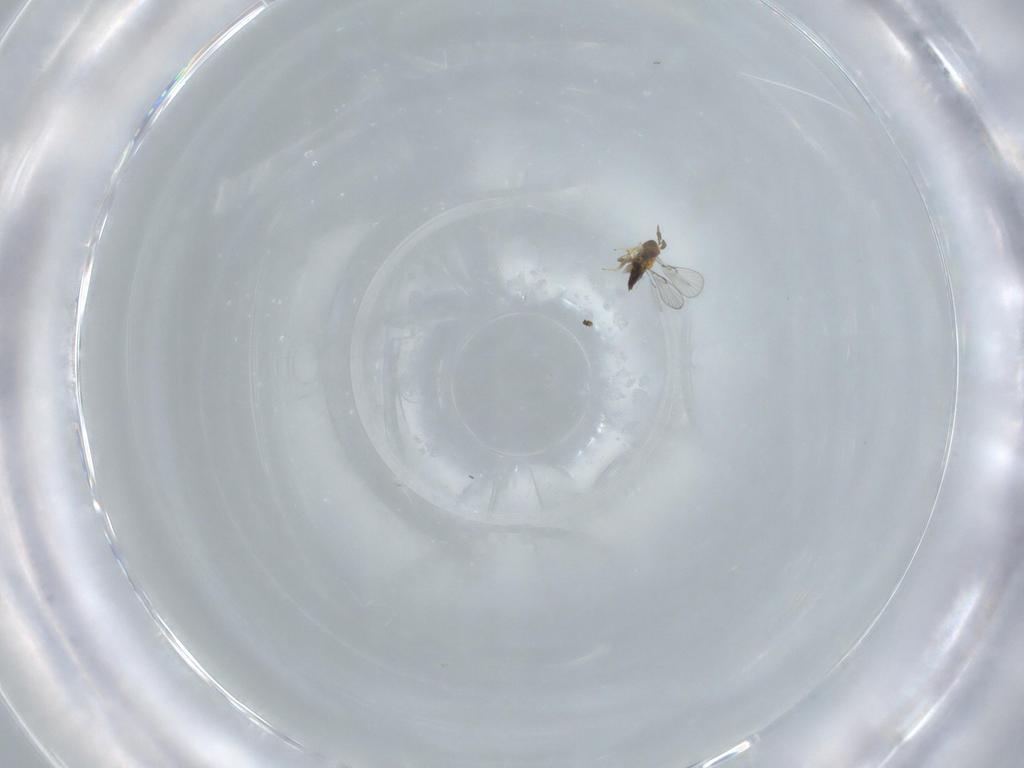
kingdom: Animalia
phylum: Arthropoda
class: Insecta
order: Hymenoptera
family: Trichogrammatidae
